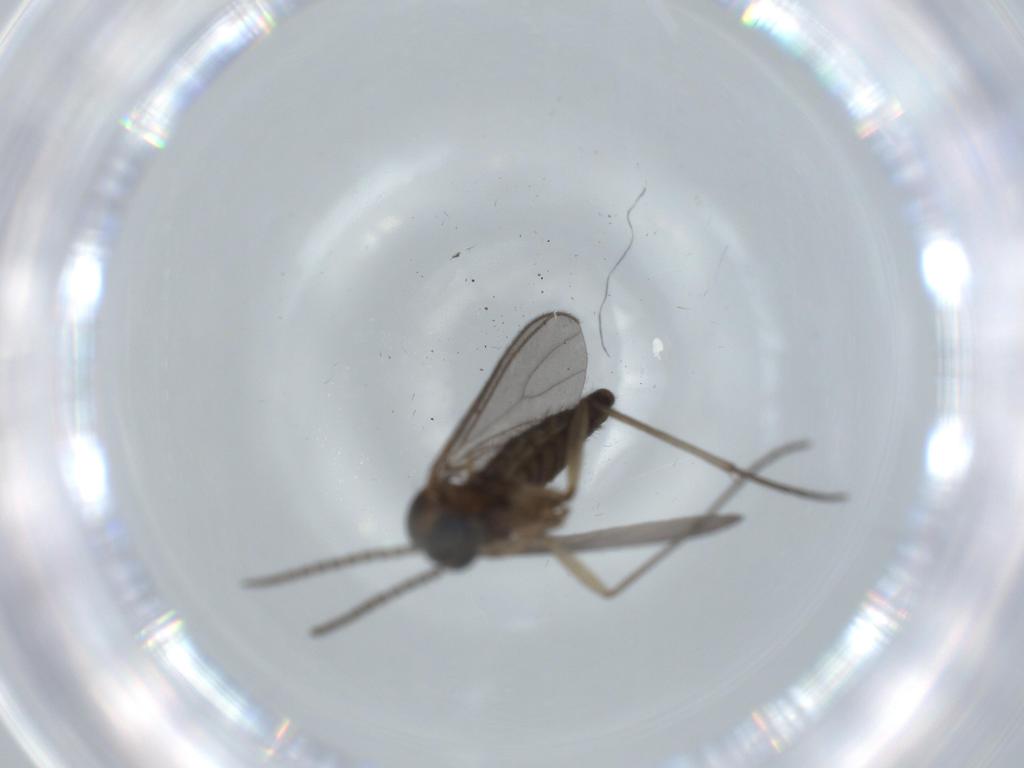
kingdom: Animalia
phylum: Arthropoda
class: Insecta
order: Diptera
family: Sciaridae
